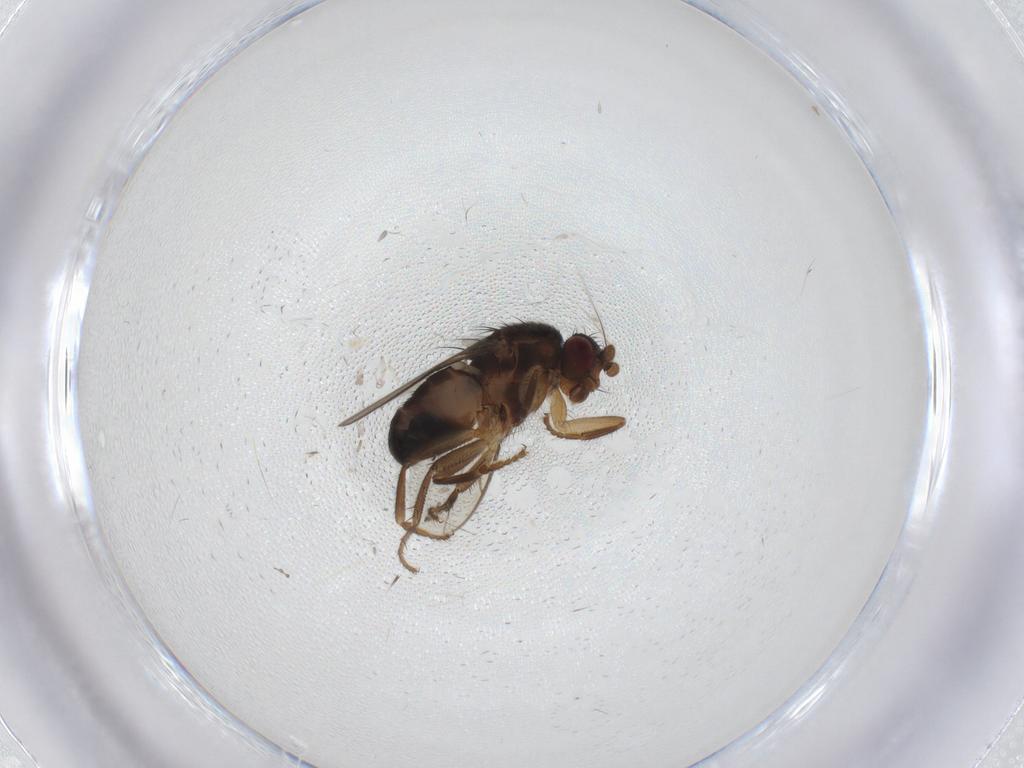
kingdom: Animalia
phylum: Arthropoda
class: Insecta
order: Diptera
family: Sphaeroceridae
